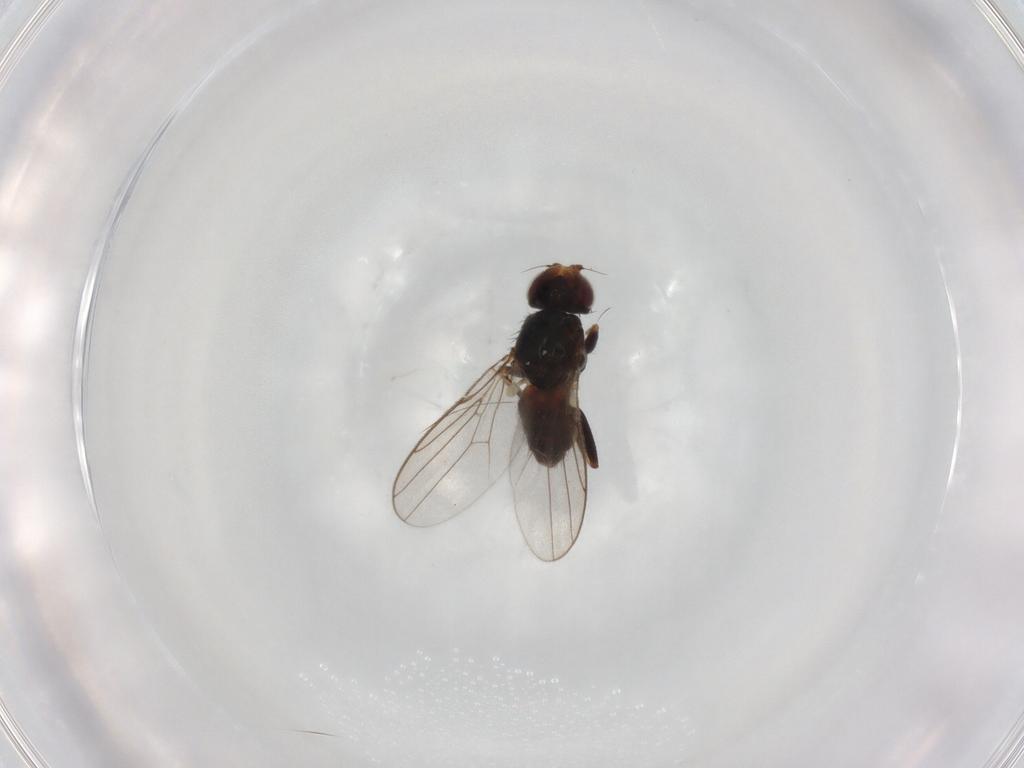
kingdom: Animalia
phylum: Arthropoda
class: Insecta
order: Diptera
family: Chloropidae
